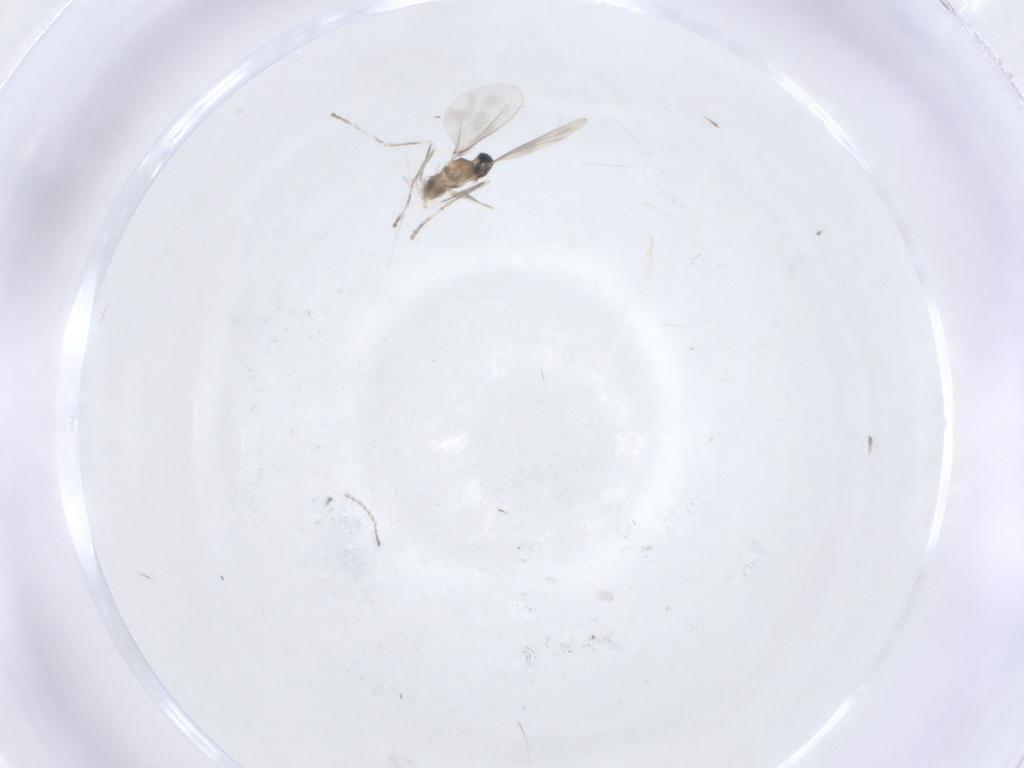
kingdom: Animalia
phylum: Arthropoda
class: Insecta
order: Diptera
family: Cecidomyiidae
